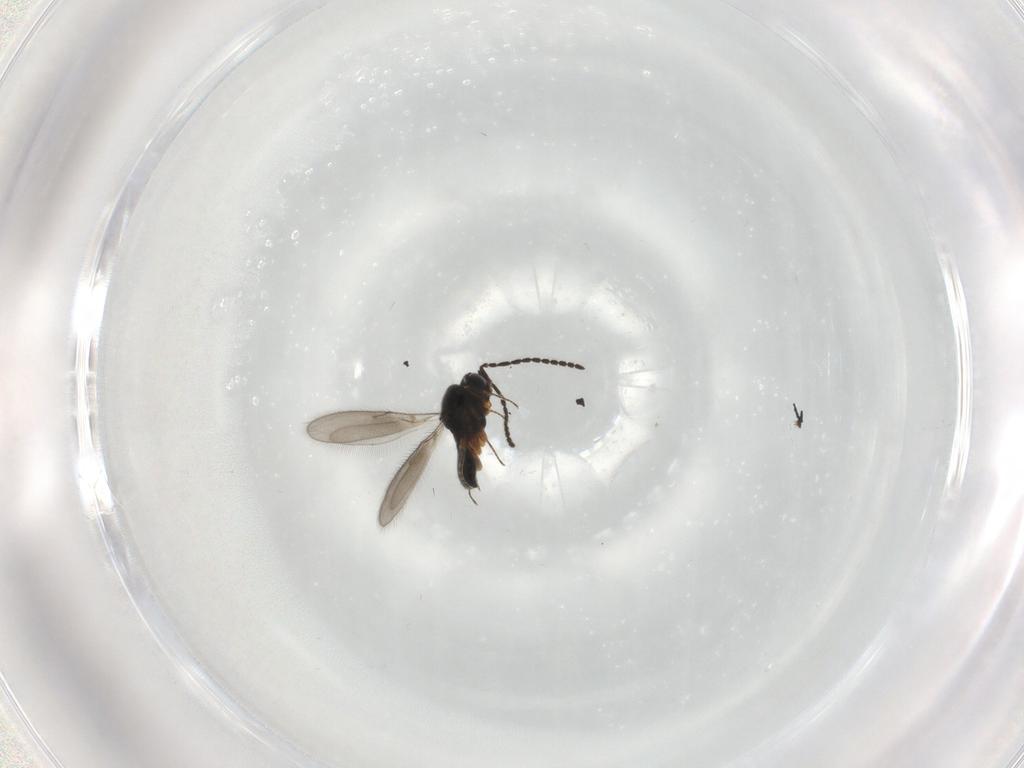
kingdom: Animalia
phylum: Arthropoda
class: Insecta
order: Hymenoptera
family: Scelionidae
